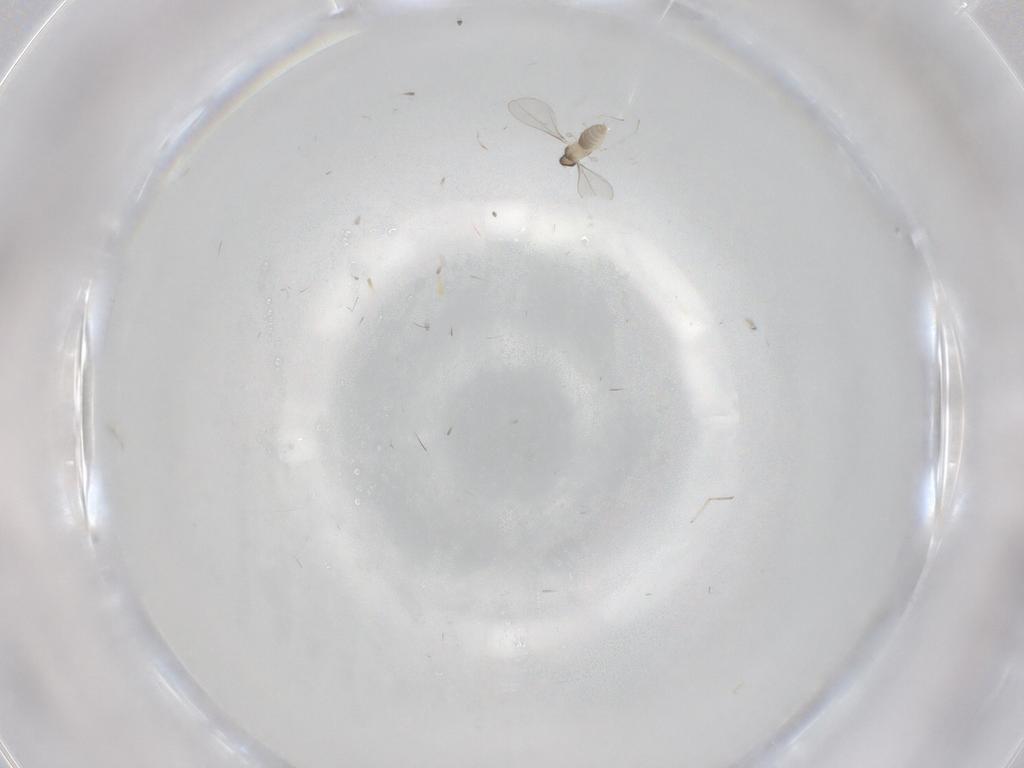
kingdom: Animalia
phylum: Arthropoda
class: Insecta
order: Diptera
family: Cecidomyiidae
